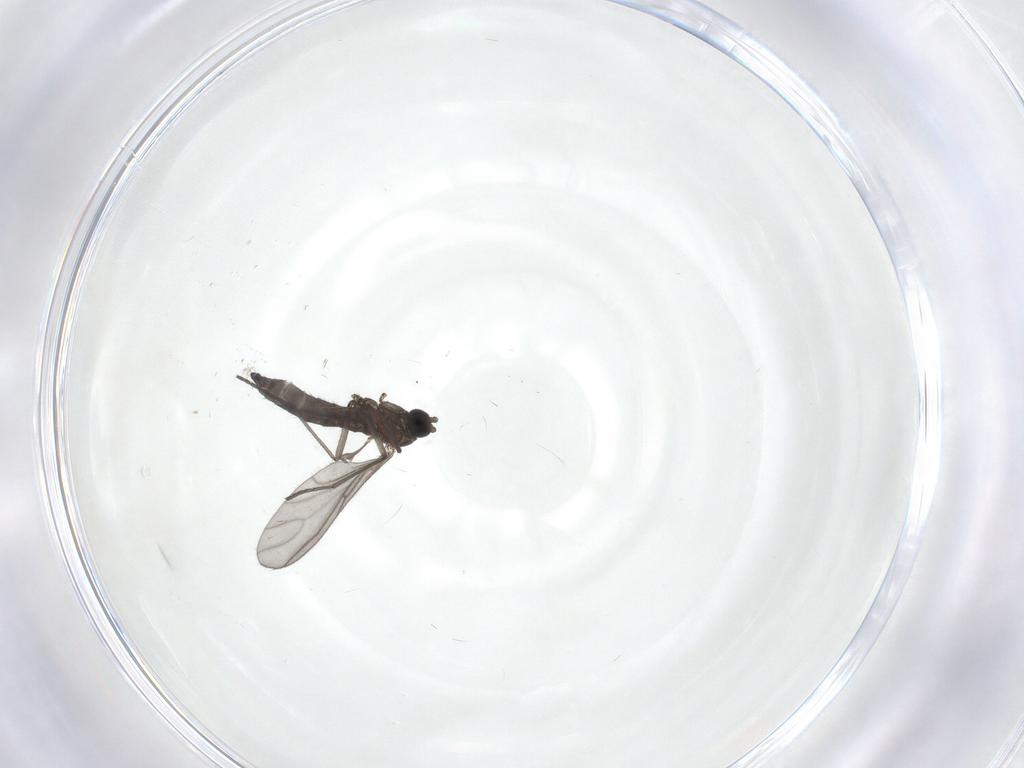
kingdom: Animalia
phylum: Arthropoda
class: Insecta
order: Diptera
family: Sciaridae
